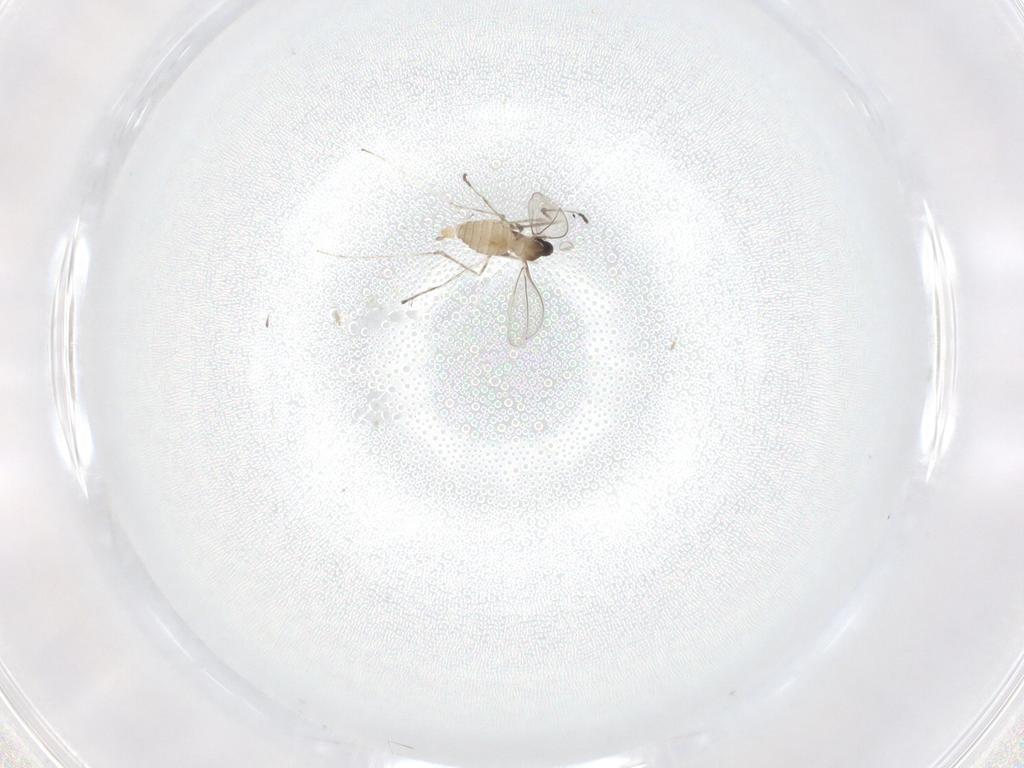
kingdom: Animalia
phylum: Arthropoda
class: Insecta
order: Diptera
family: Cecidomyiidae
